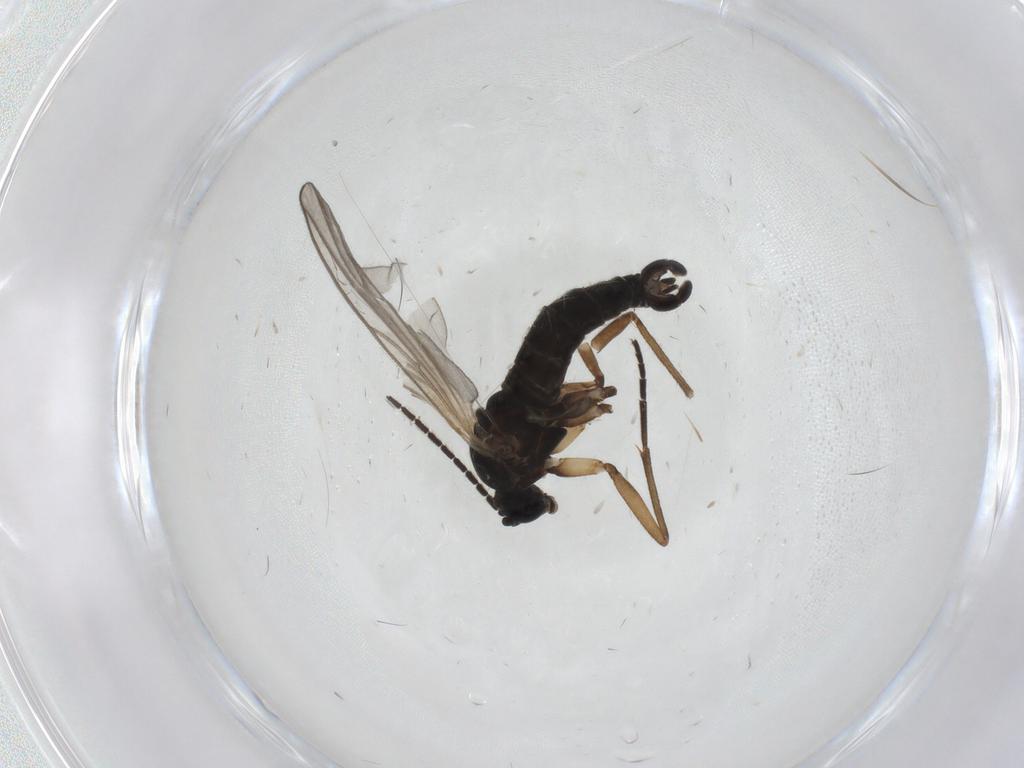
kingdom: Animalia
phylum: Arthropoda
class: Insecta
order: Diptera
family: Sciaridae
